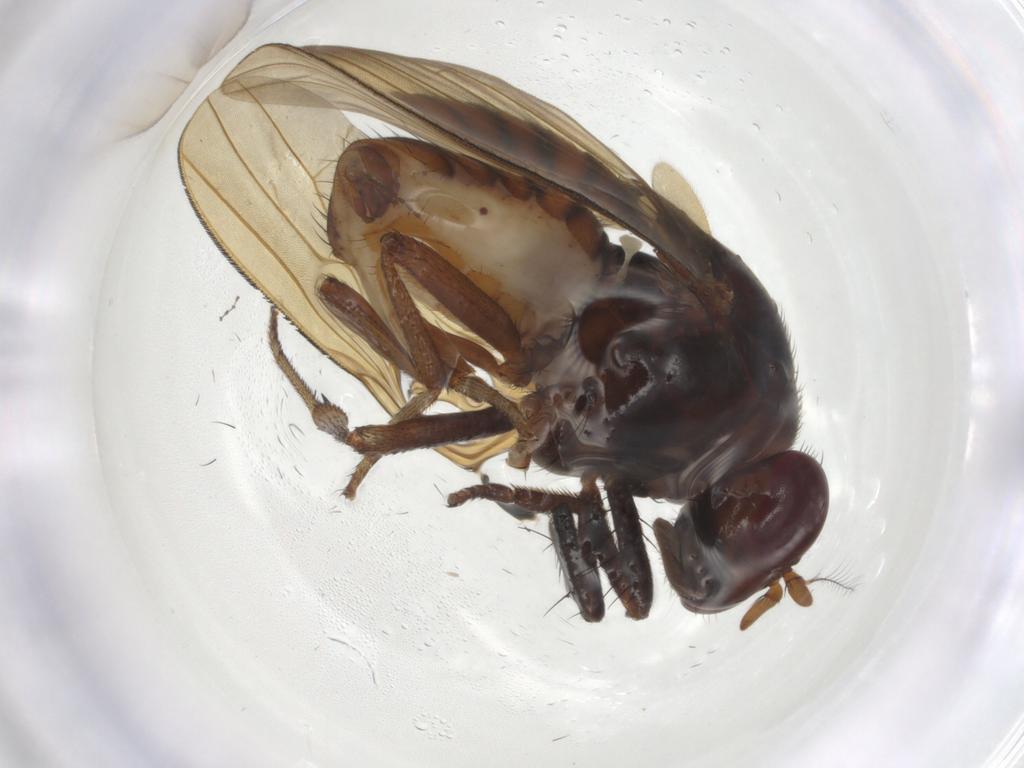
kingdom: Animalia
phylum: Arthropoda
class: Insecta
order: Diptera
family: Lauxaniidae
